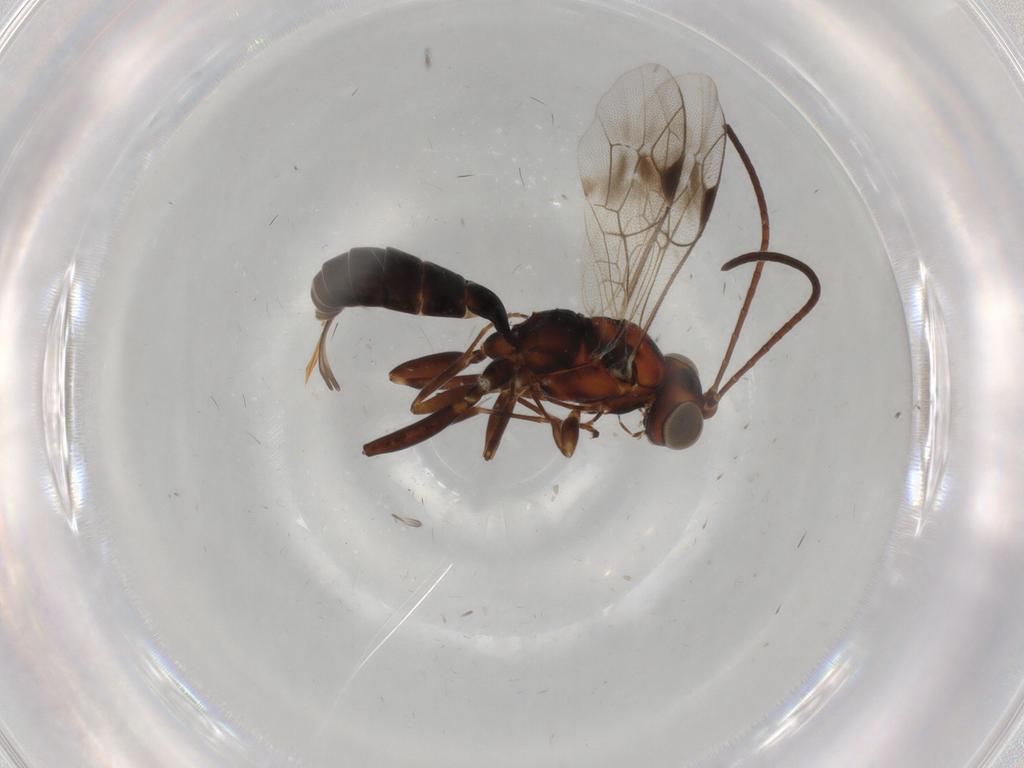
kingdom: Animalia
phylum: Arthropoda
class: Insecta
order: Hymenoptera
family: Ichneumonidae
